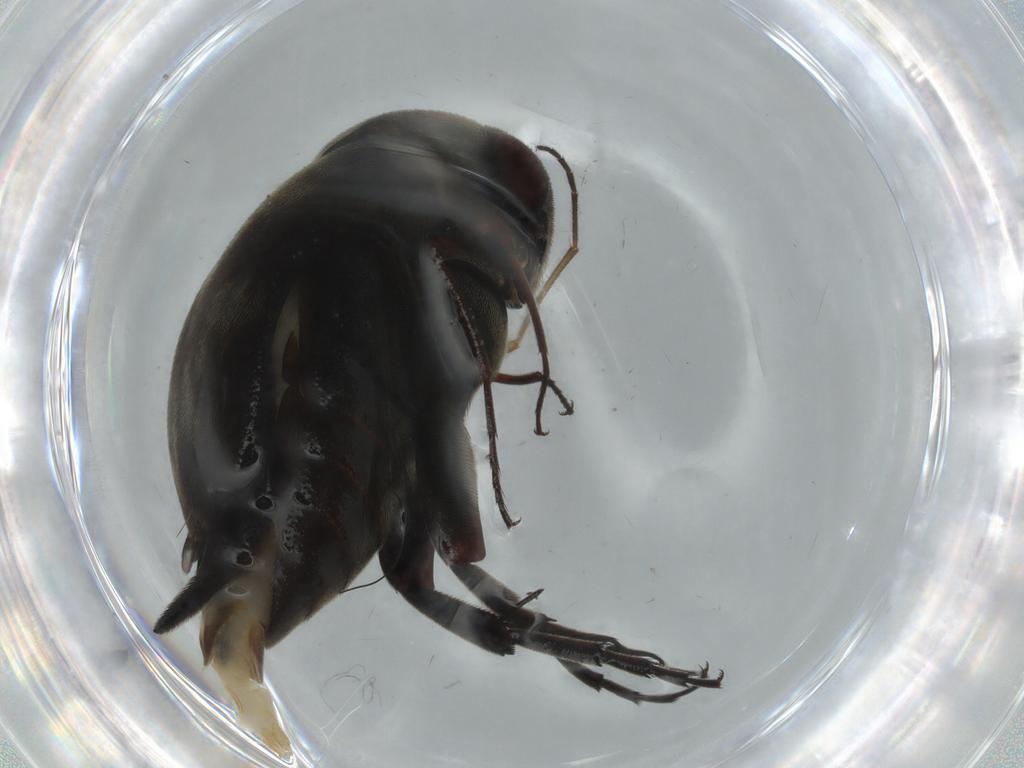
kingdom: Animalia
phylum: Arthropoda
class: Insecta
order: Coleoptera
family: Mordellidae
